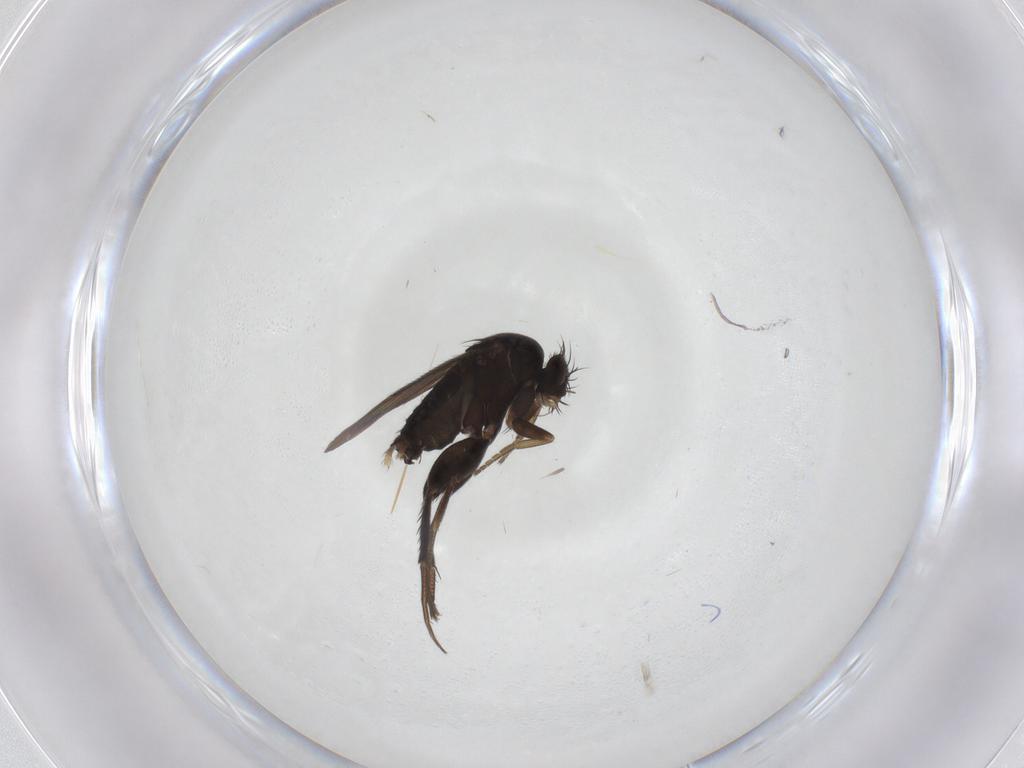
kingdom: Animalia
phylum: Arthropoda
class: Insecta
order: Diptera
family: Phoridae
